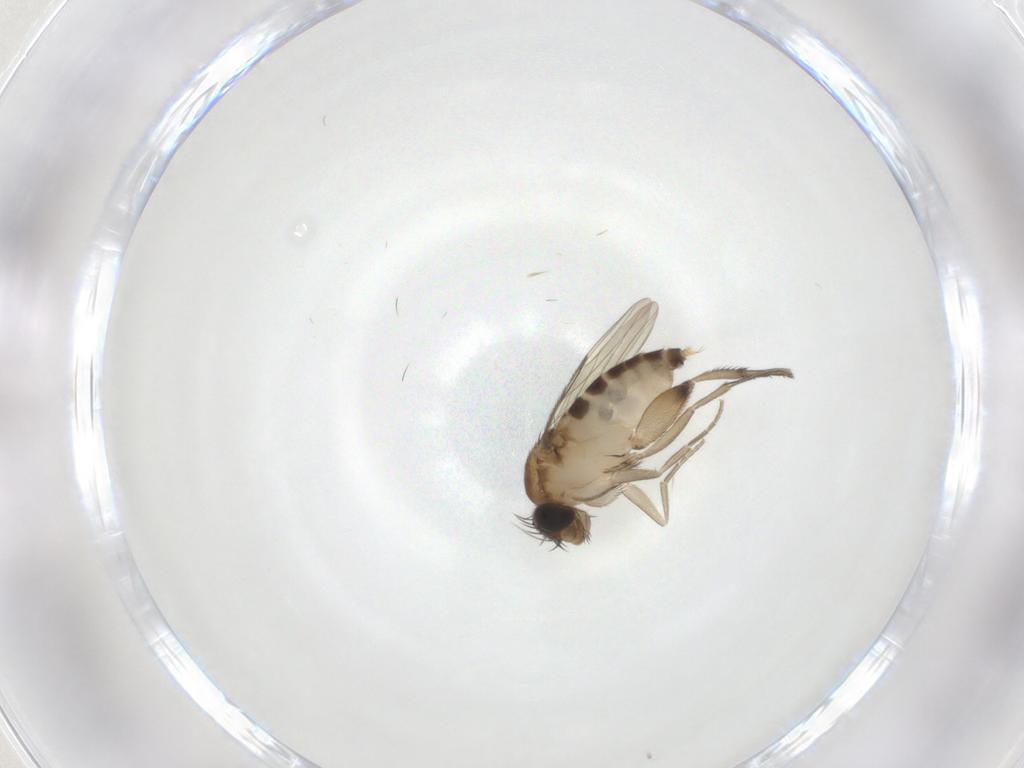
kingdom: Animalia
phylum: Arthropoda
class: Insecta
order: Diptera
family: Phoridae
